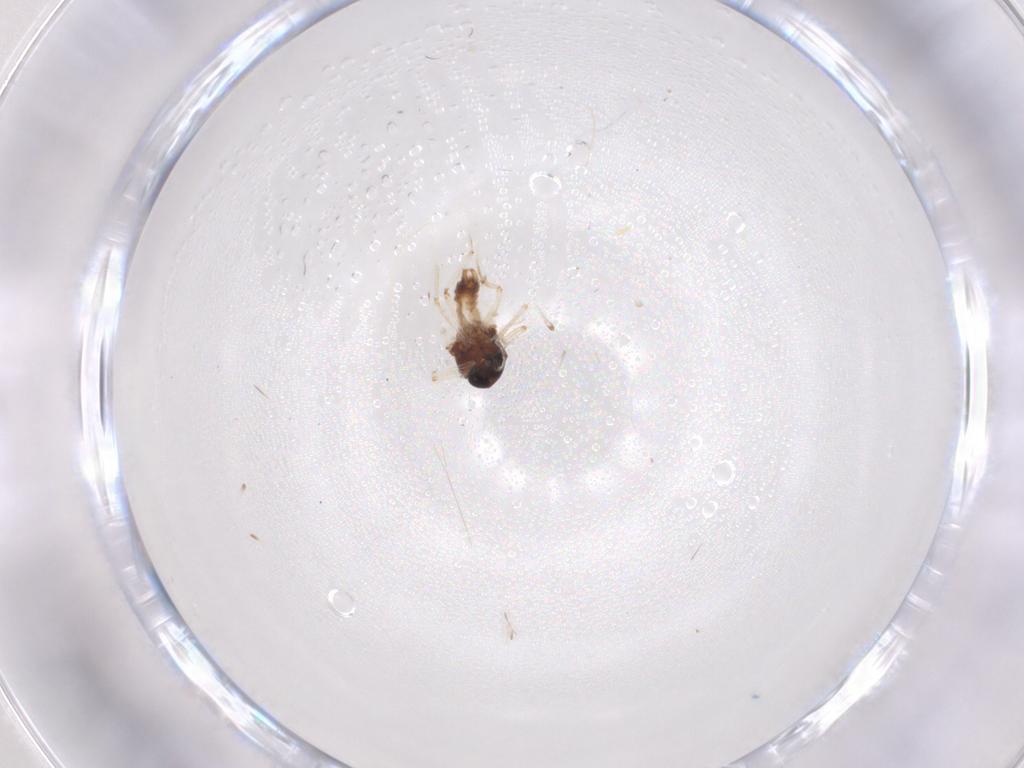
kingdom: Animalia
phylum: Arthropoda
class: Insecta
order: Diptera
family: Ceratopogonidae
